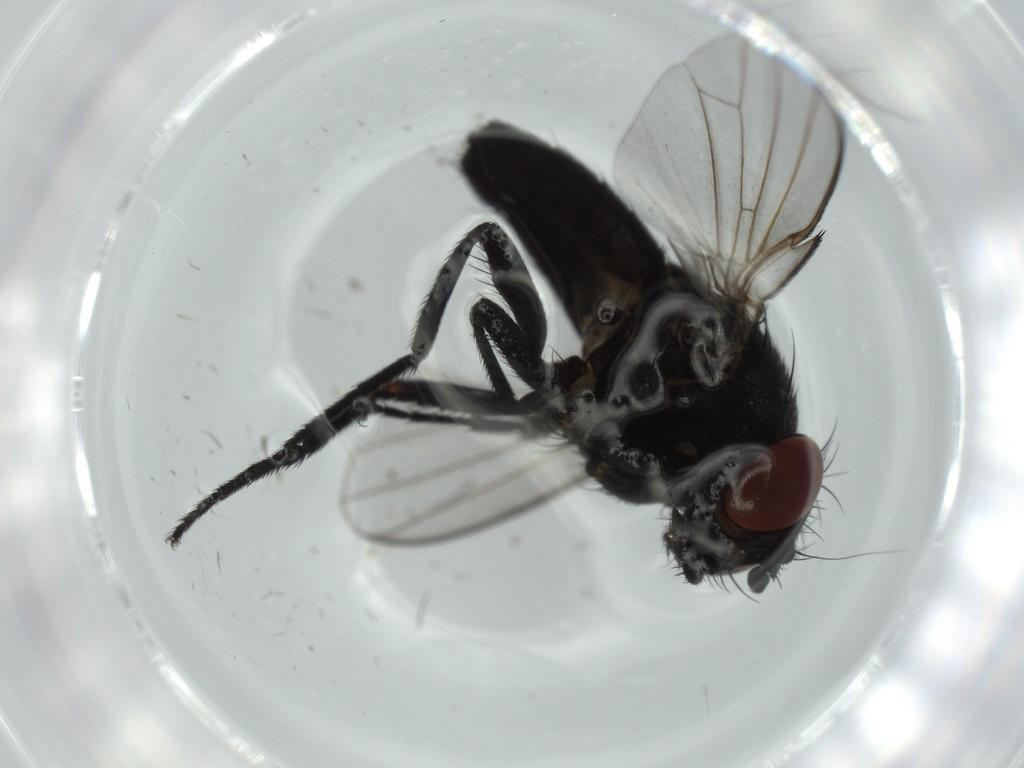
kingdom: Animalia
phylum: Arthropoda
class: Insecta
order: Diptera
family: Milichiidae
